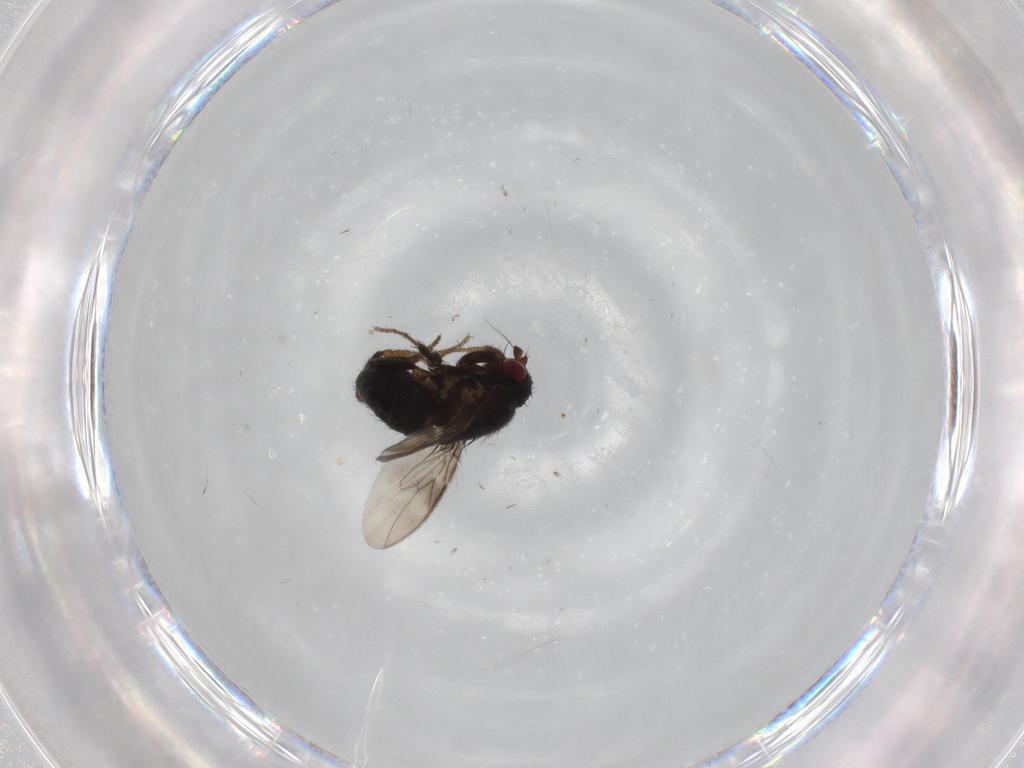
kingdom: Animalia
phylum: Arthropoda
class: Insecta
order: Diptera
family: Sphaeroceridae
